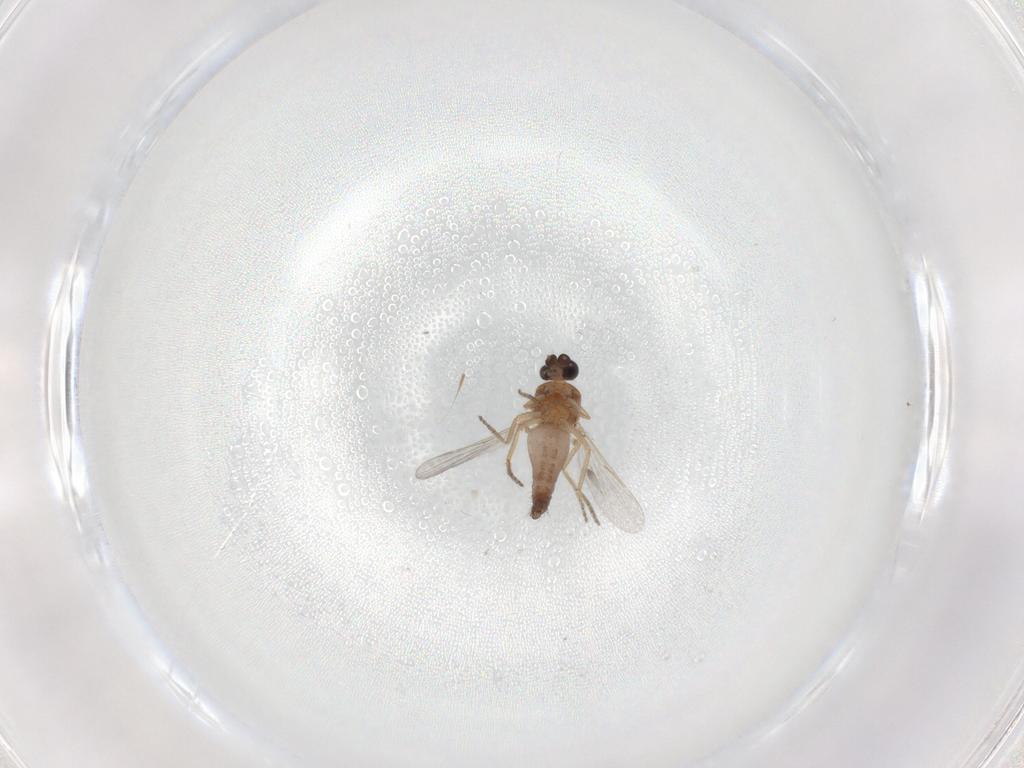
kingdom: Animalia
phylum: Arthropoda
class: Insecta
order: Diptera
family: Ceratopogonidae
